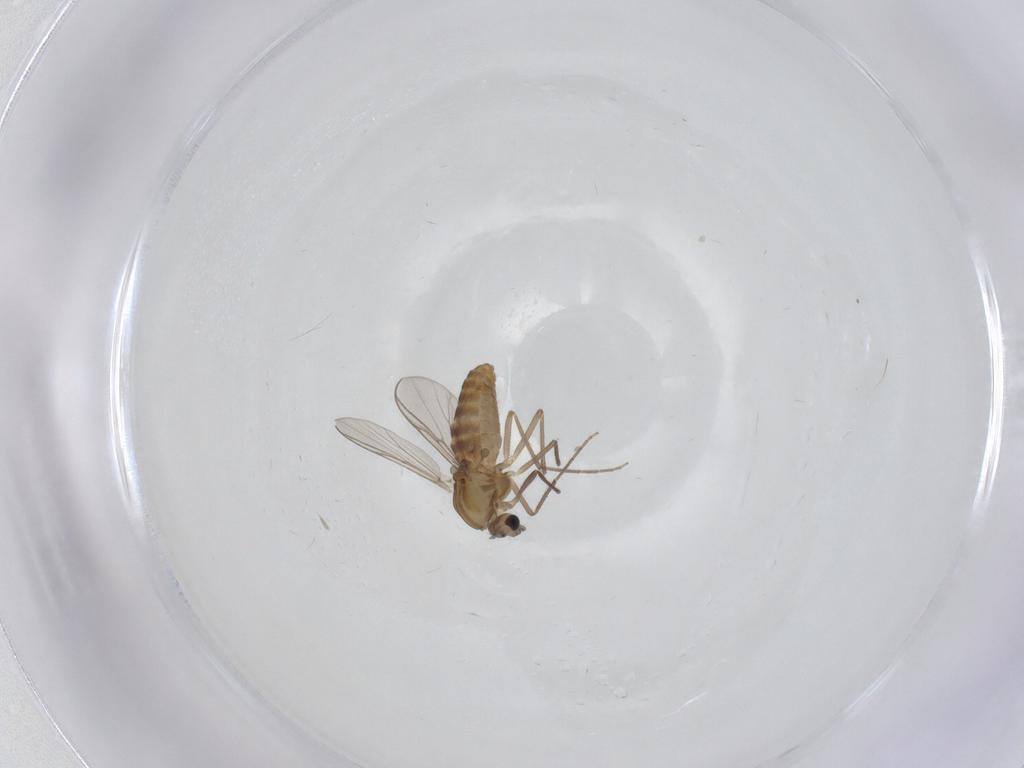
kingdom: Animalia
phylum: Arthropoda
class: Insecta
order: Diptera
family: Chironomidae
